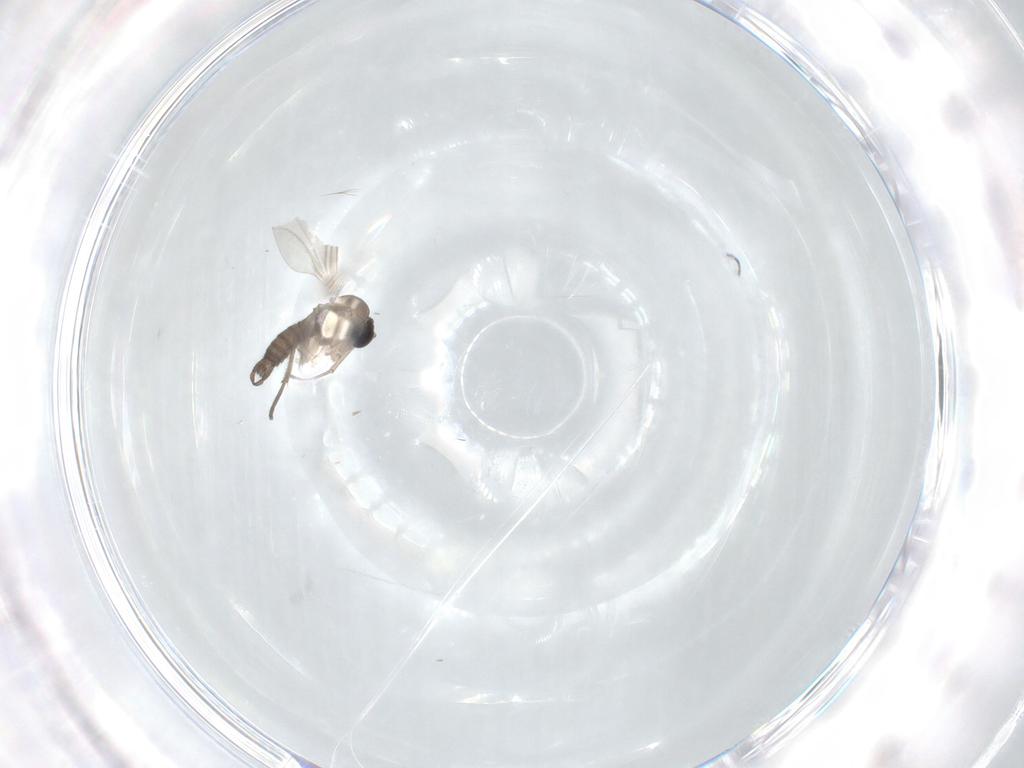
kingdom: Animalia
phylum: Arthropoda
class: Insecta
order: Diptera
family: Sciaridae
